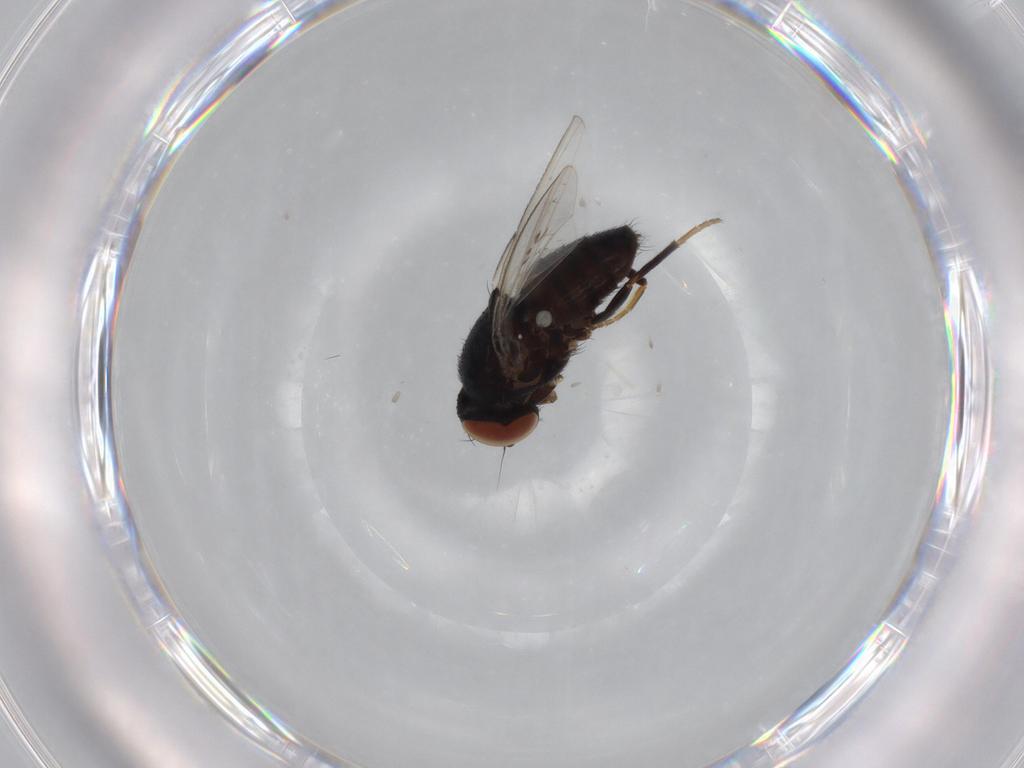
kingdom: Animalia
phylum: Arthropoda
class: Insecta
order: Diptera
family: Milichiidae
